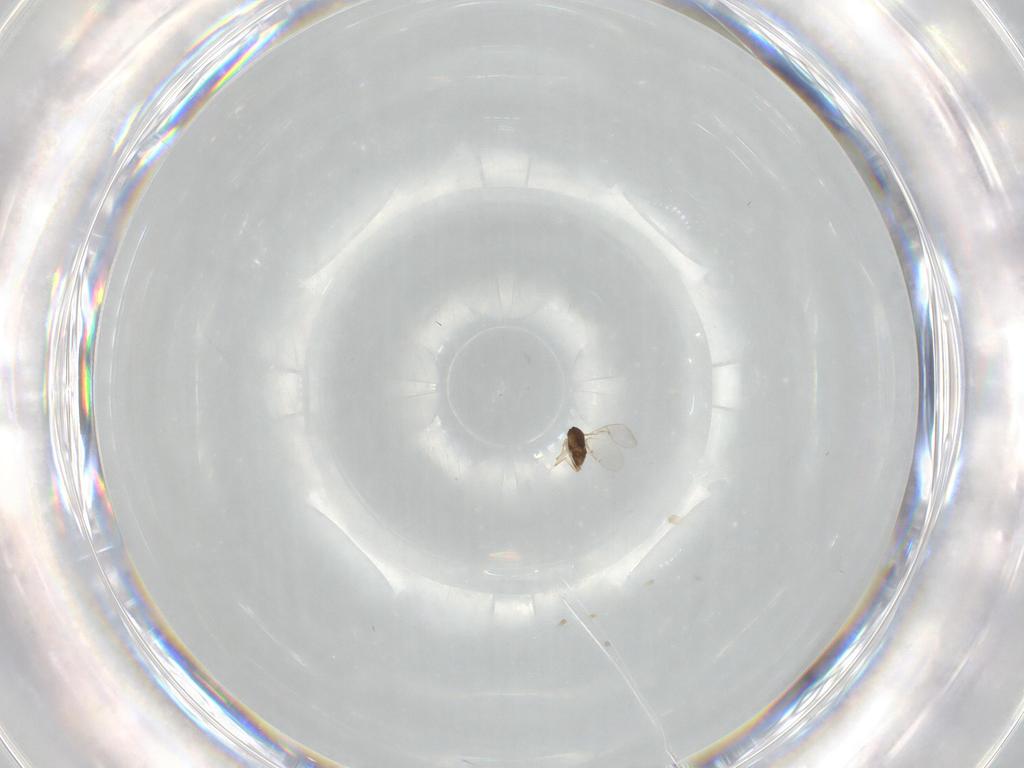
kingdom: Animalia
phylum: Arthropoda
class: Insecta
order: Hymenoptera
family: Encyrtidae
